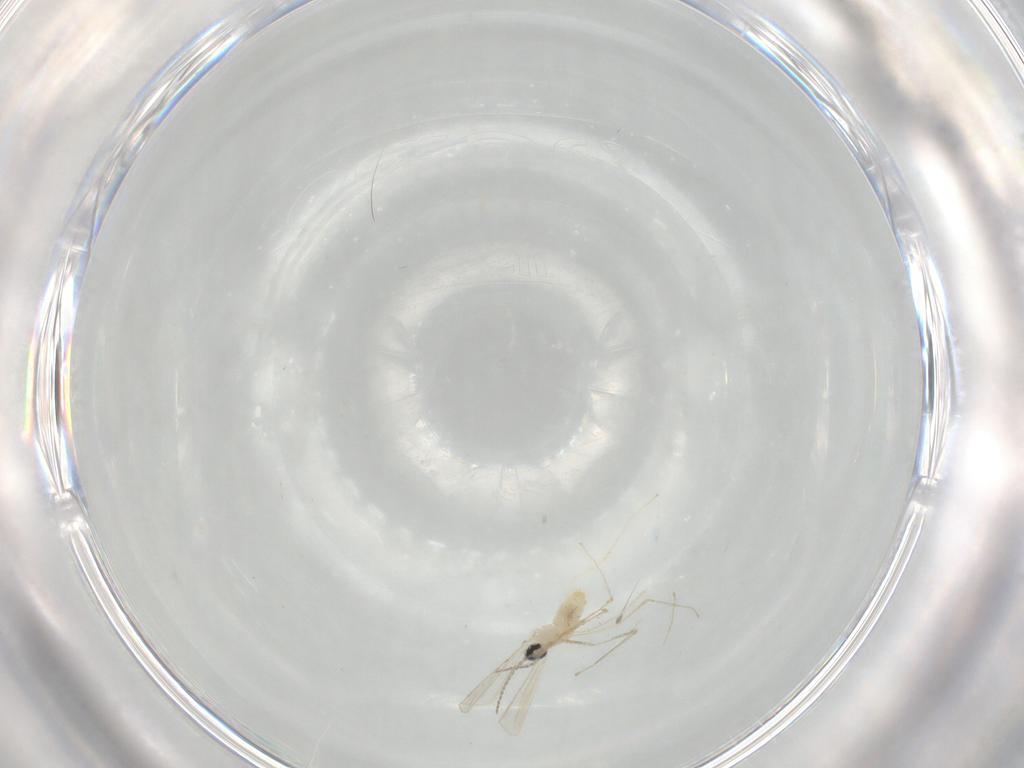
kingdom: Animalia
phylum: Arthropoda
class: Insecta
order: Diptera
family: Cecidomyiidae
